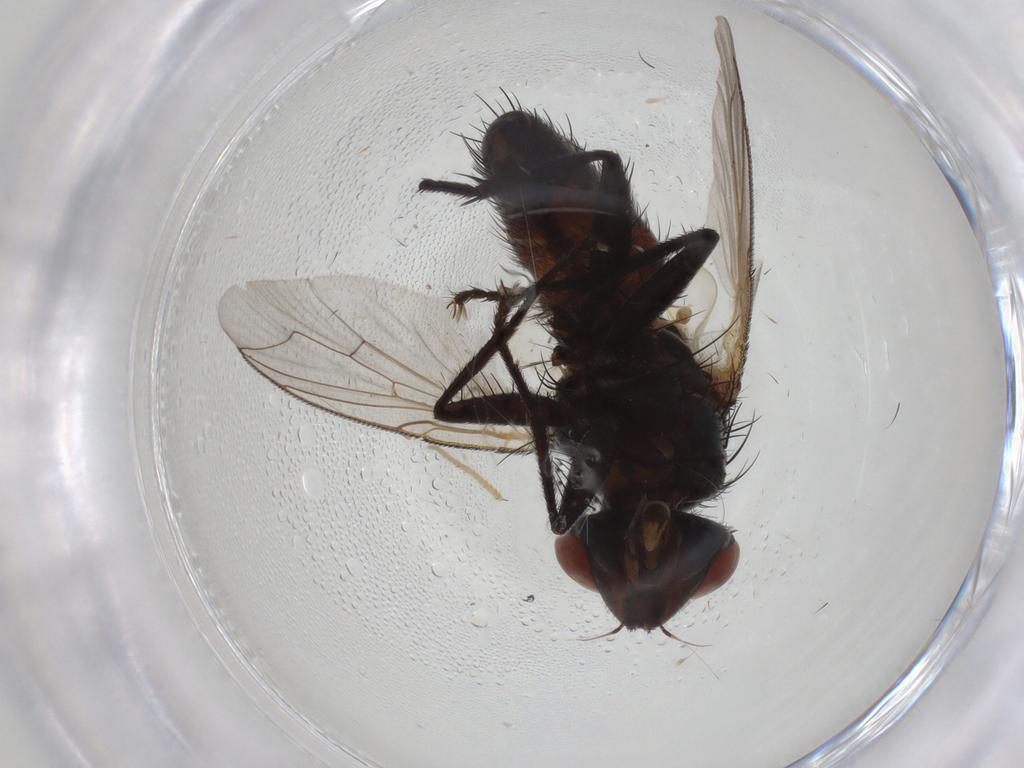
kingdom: Animalia
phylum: Arthropoda
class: Insecta
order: Diptera
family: Sarcophagidae
